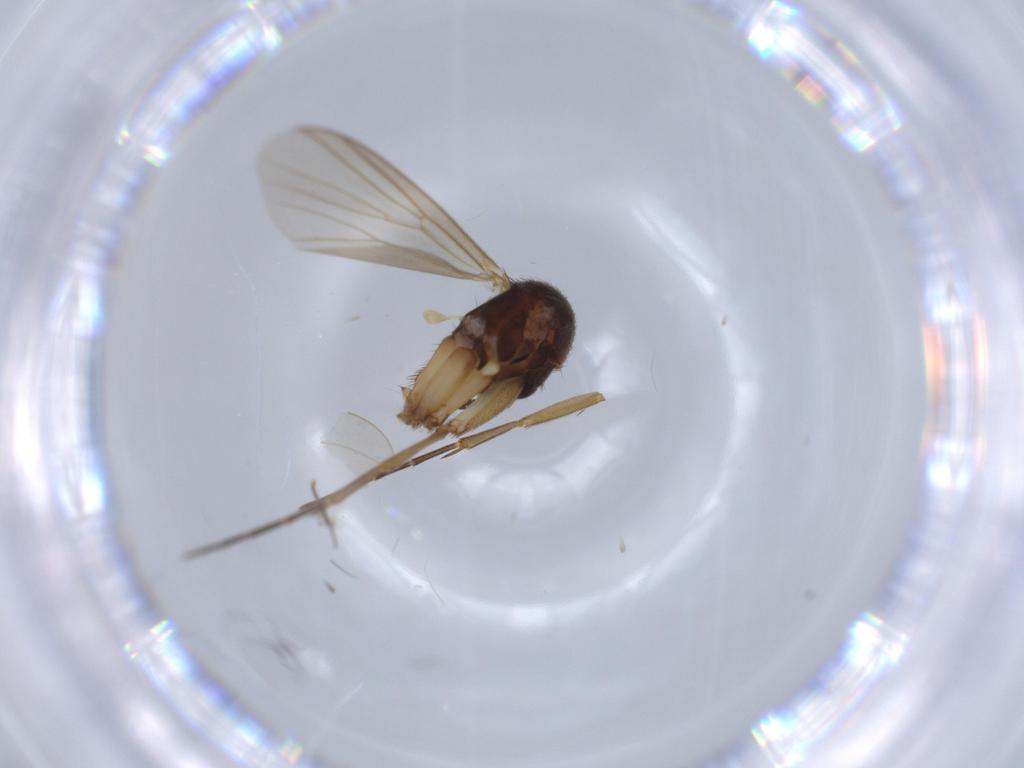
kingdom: Animalia
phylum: Arthropoda
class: Insecta
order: Diptera
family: Mycetophilidae
